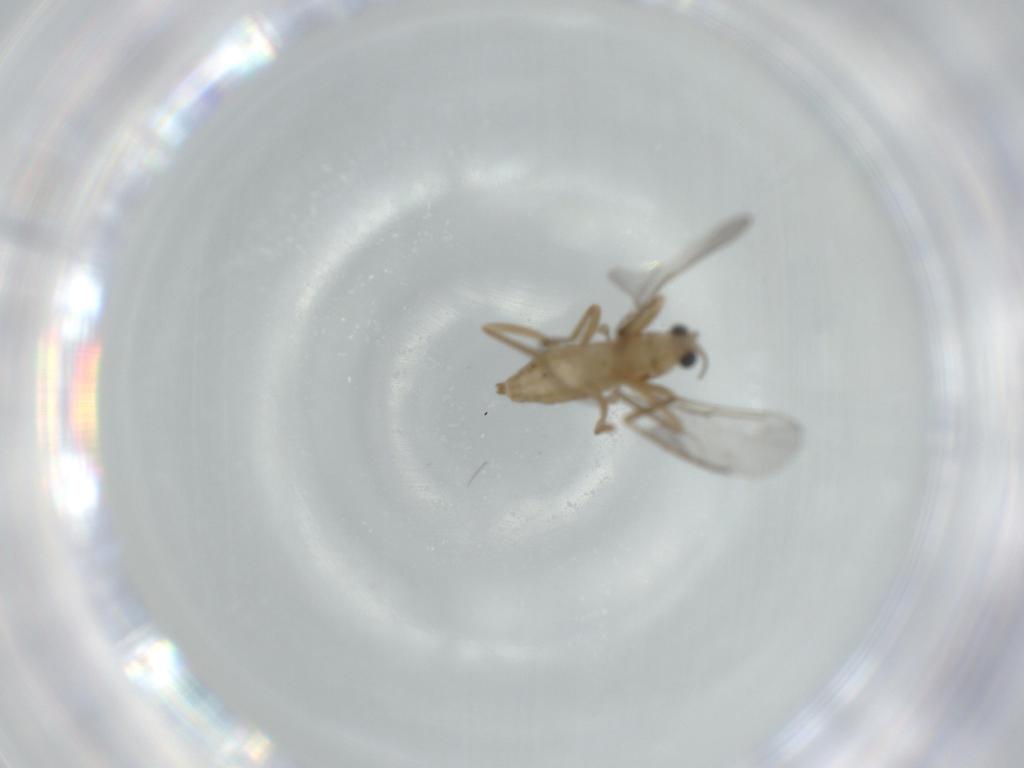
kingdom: Animalia
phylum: Arthropoda
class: Insecta
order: Diptera
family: Cecidomyiidae
